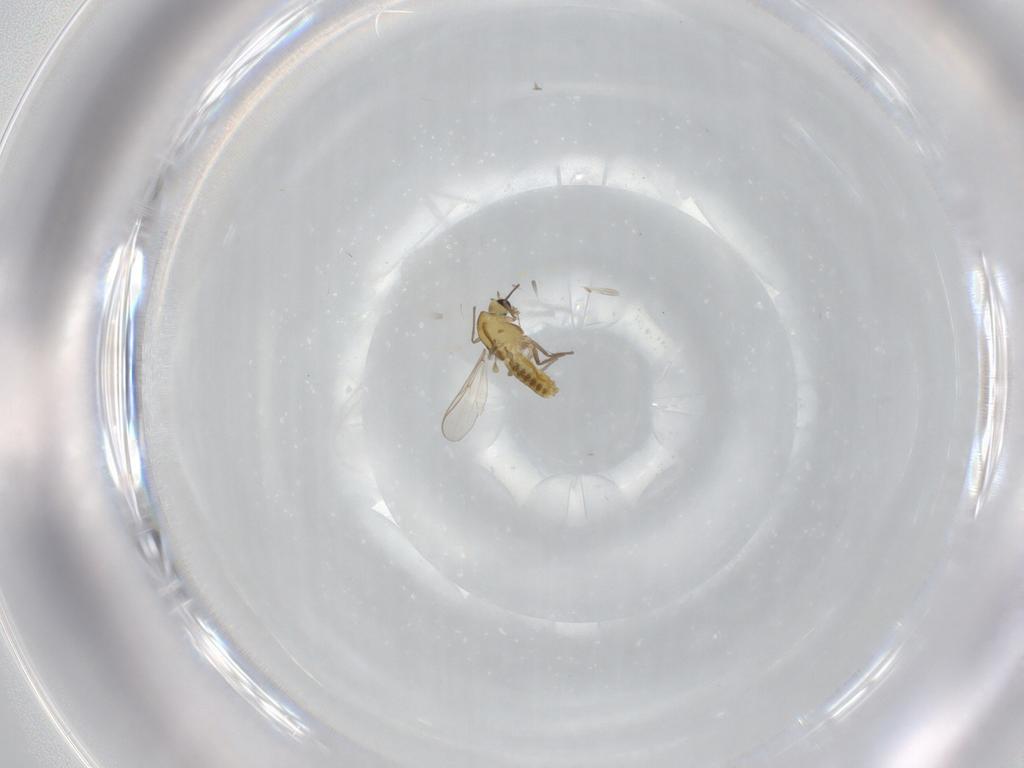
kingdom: Animalia
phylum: Arthropoda
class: Insecta
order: Diptera
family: Chironomidae
